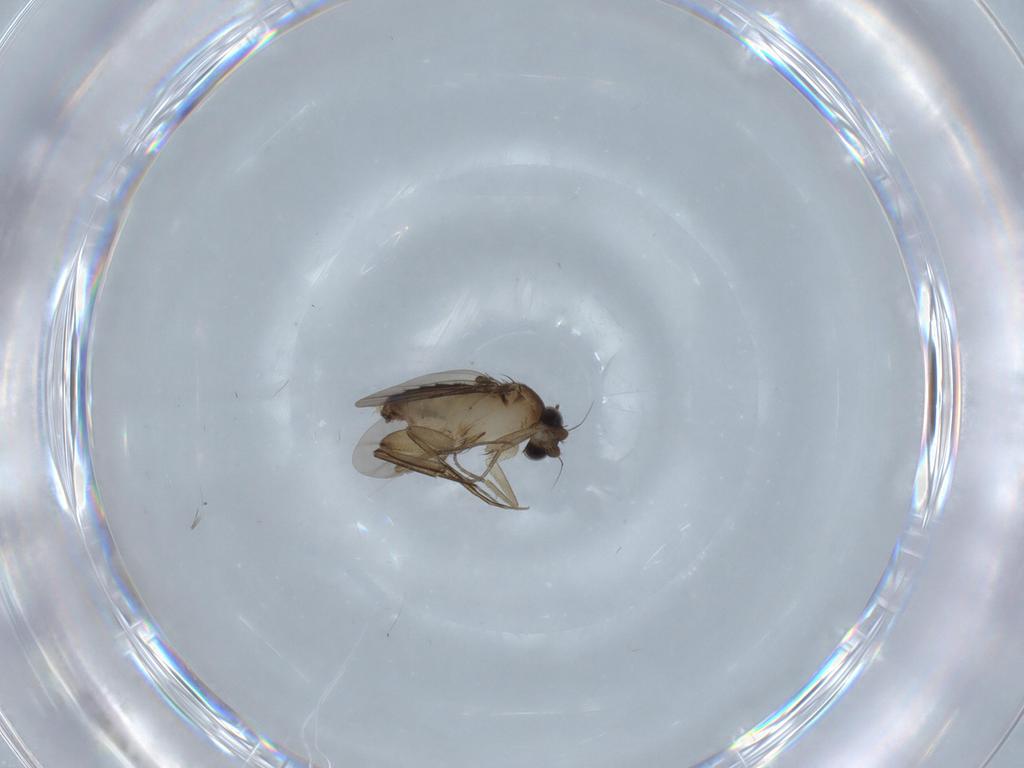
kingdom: Animalia
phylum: Arthropoda
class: Insecta
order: Diptera
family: Phoridae
